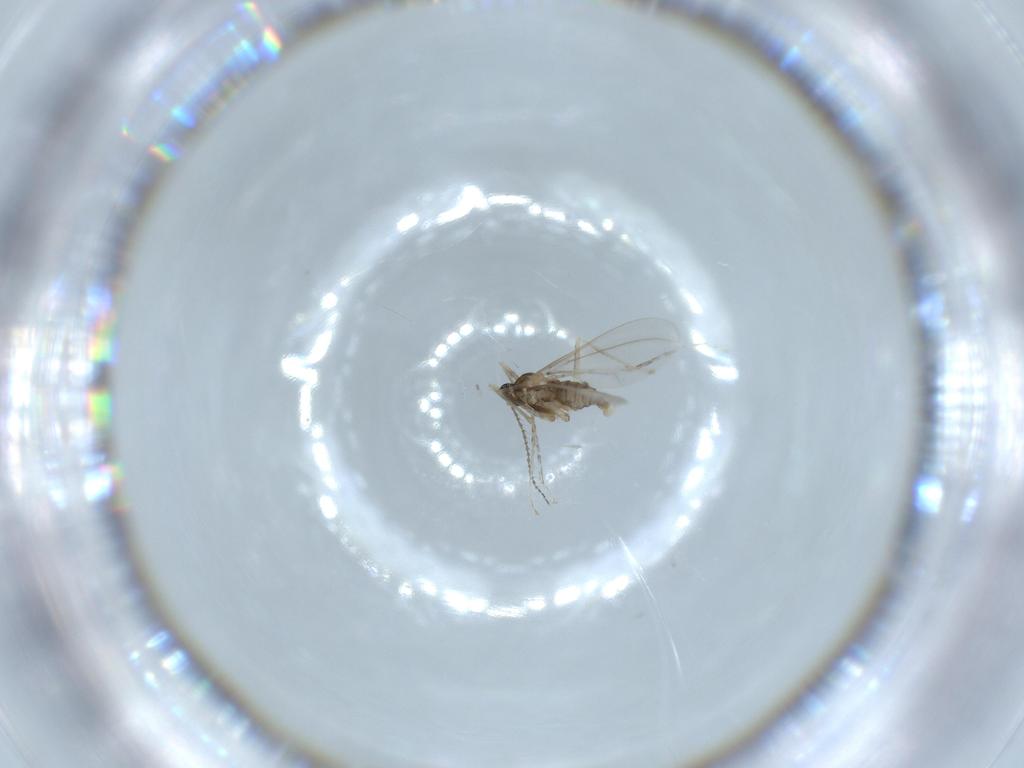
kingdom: Animalia
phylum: Arthropoda
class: Insecta
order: Diptera
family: Cecidomyiidae
